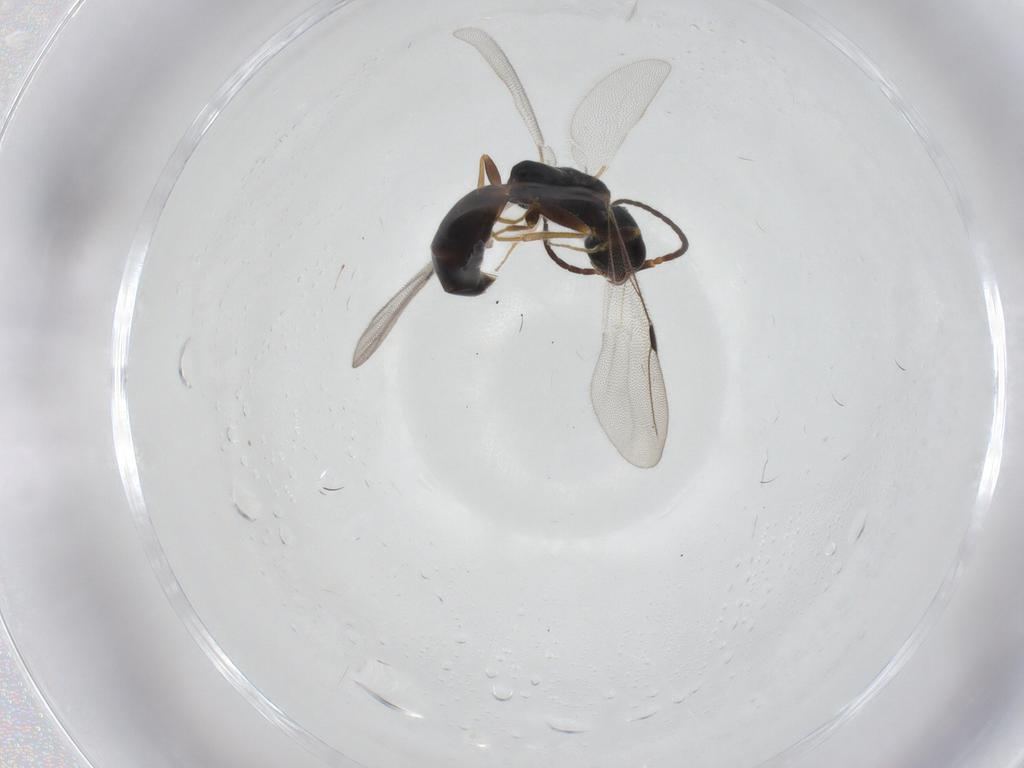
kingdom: Animalia
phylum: Arthropoda
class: Insecta
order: Hymenoptera
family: Bethylidae
